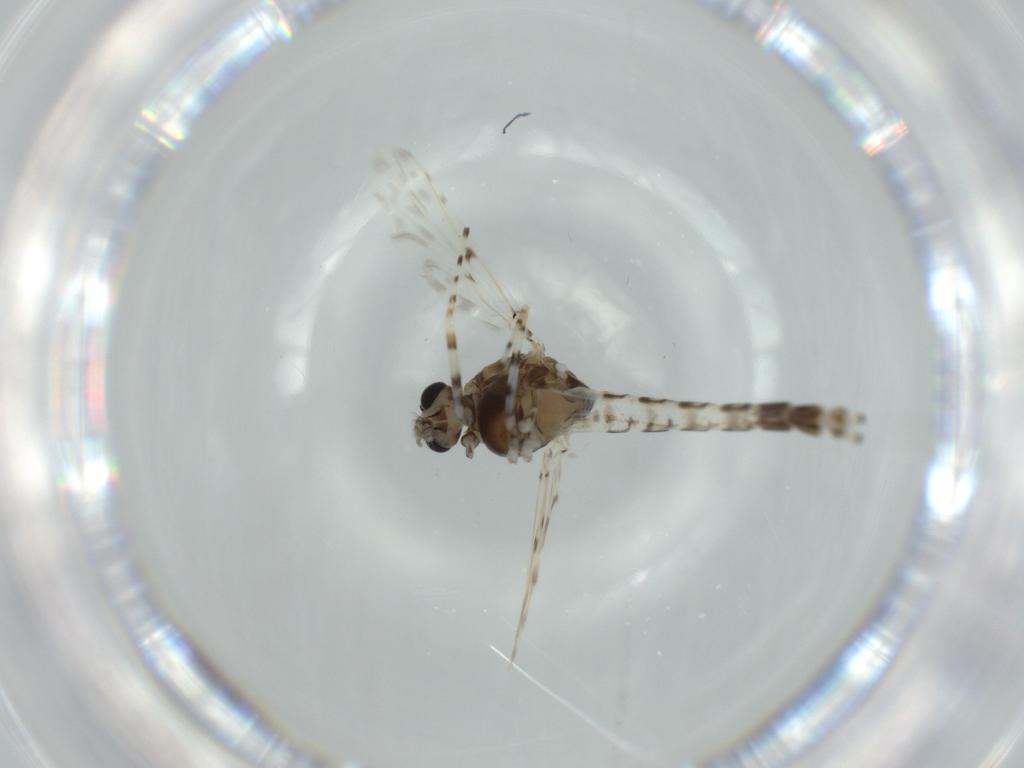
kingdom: Animalia
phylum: Arthropoda
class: Insecta
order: Diptera
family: Chironomidae
